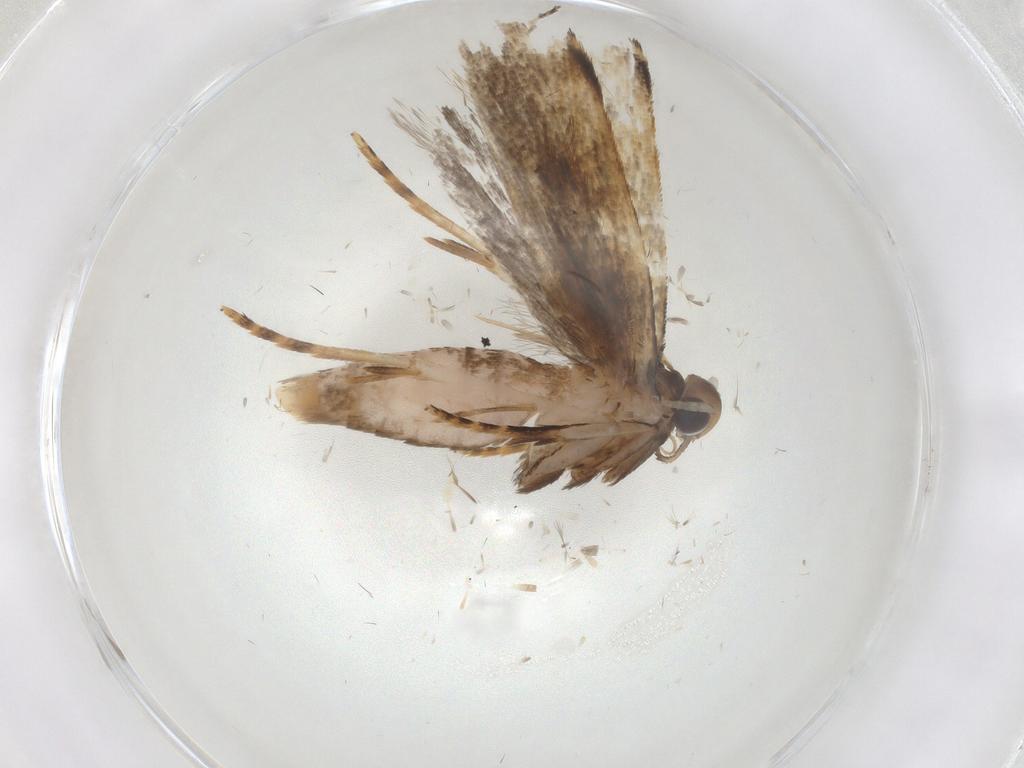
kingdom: Animalia
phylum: Arthropoda
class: Insecta
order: Lepidoptera
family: Gelechiidae
